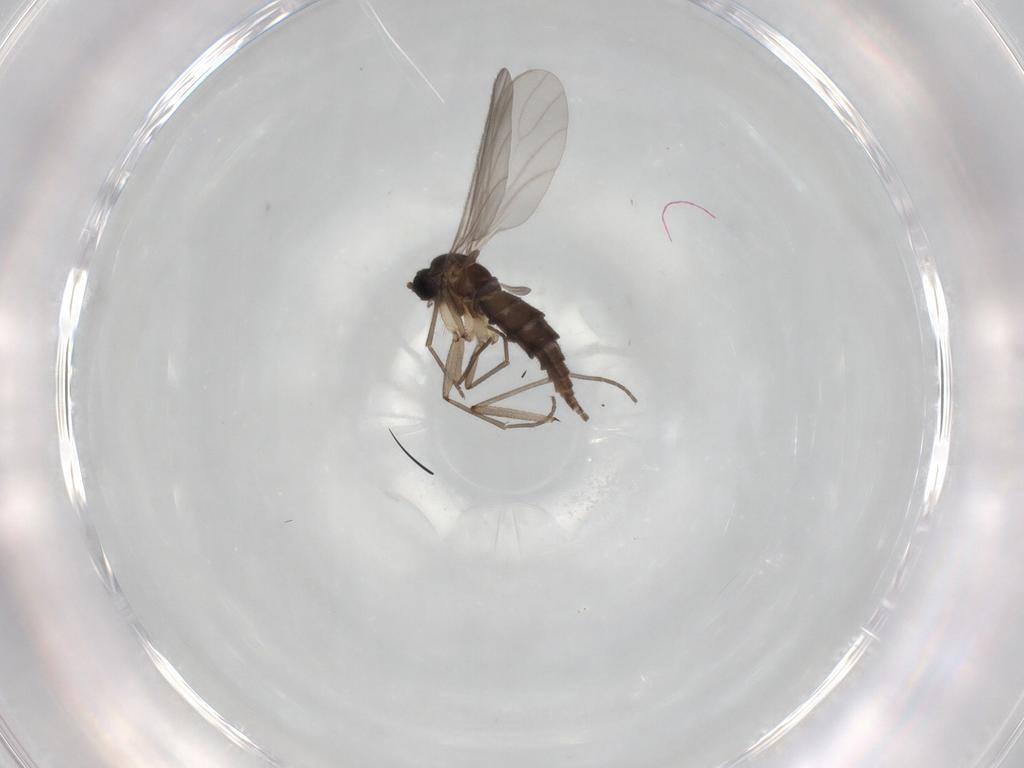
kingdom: Animalia
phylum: Arthropoda
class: Insecta
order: Diptera
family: Sciaridae
